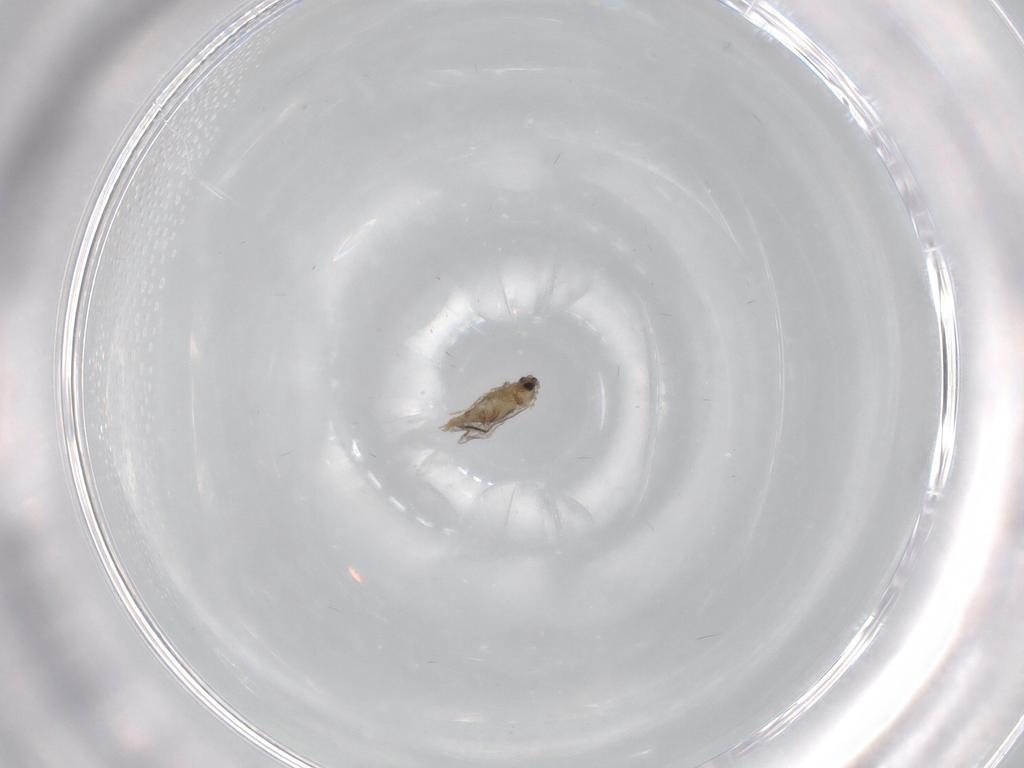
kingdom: Animalia
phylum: Arthropoda
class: Insecta
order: Diptera
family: Cecidomyiidae
